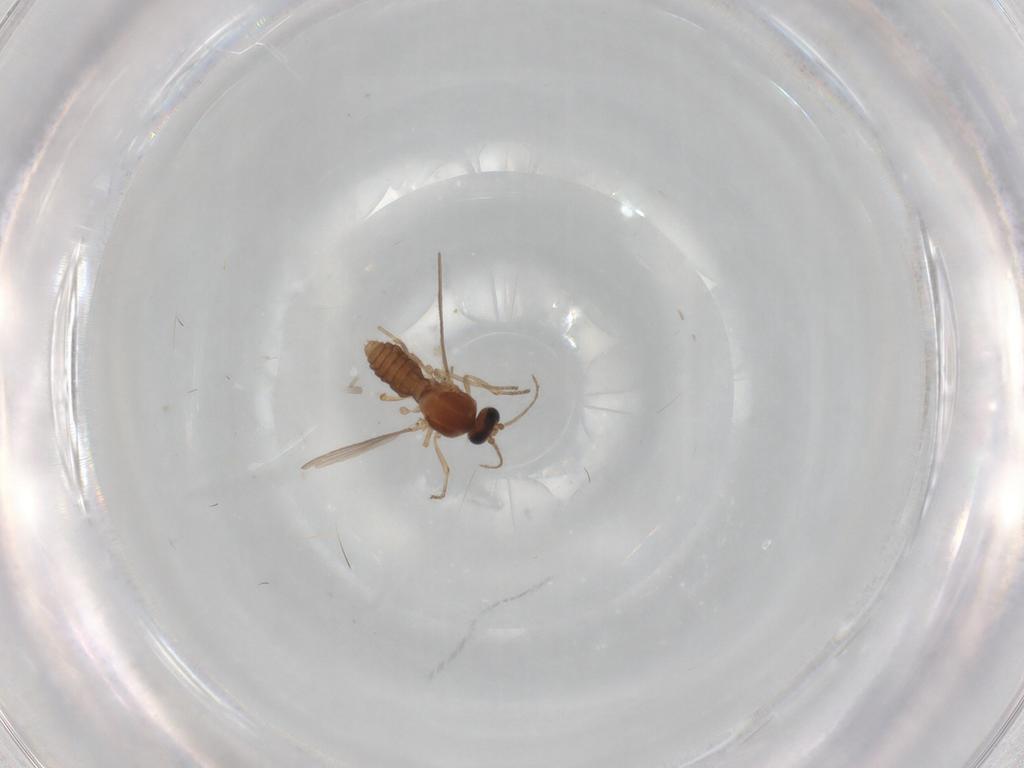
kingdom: Animalia
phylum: Arthropoda
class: Insecta
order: Diptera
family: Ceratopogonidae
